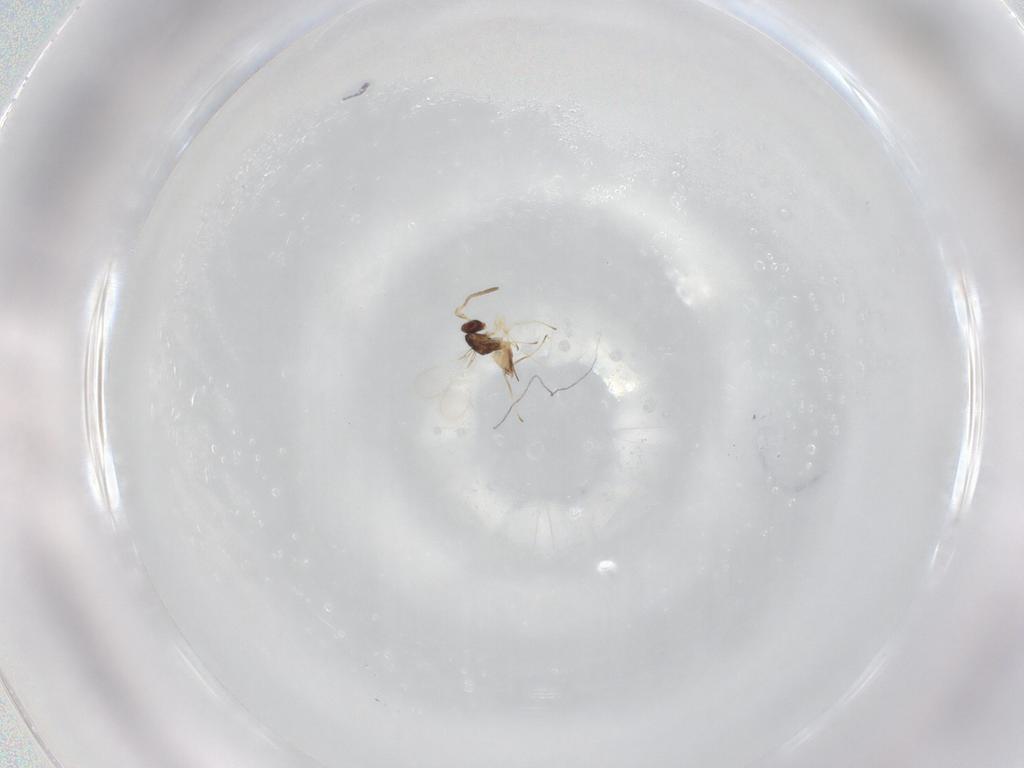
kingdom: Animalia
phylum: Arthropoda
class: Insecta
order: Hymenoptera
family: Mymaridae
